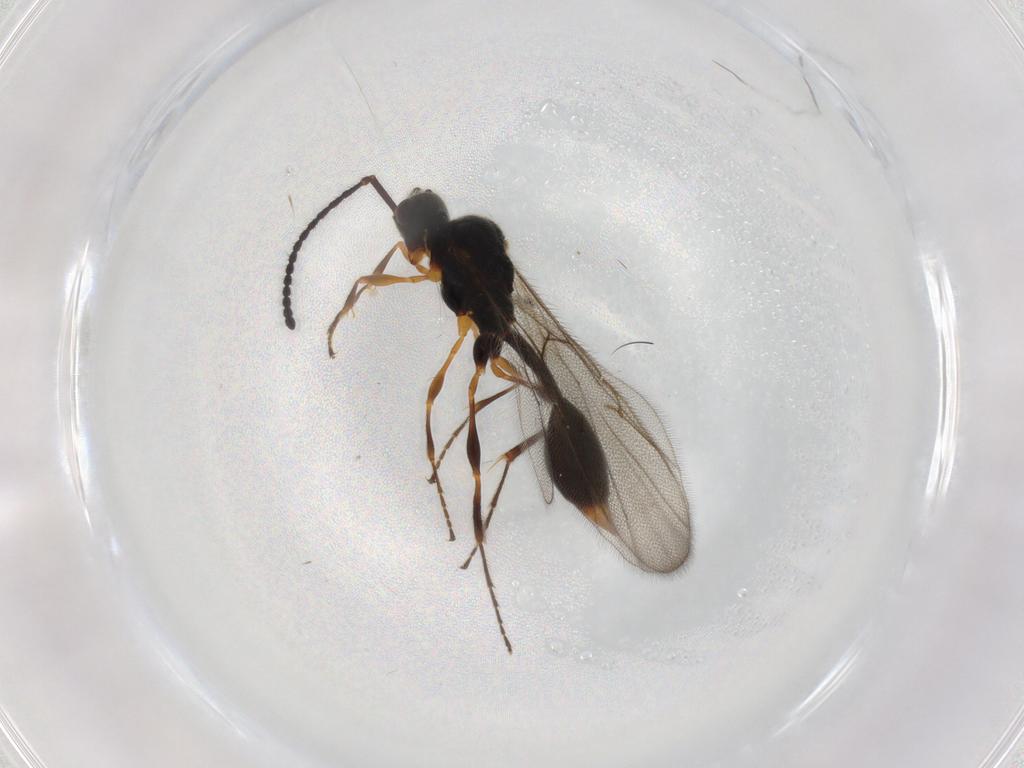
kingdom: Animalia
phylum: Arthropoda
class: Insecta
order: Hymenoptera
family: Diapriidae
